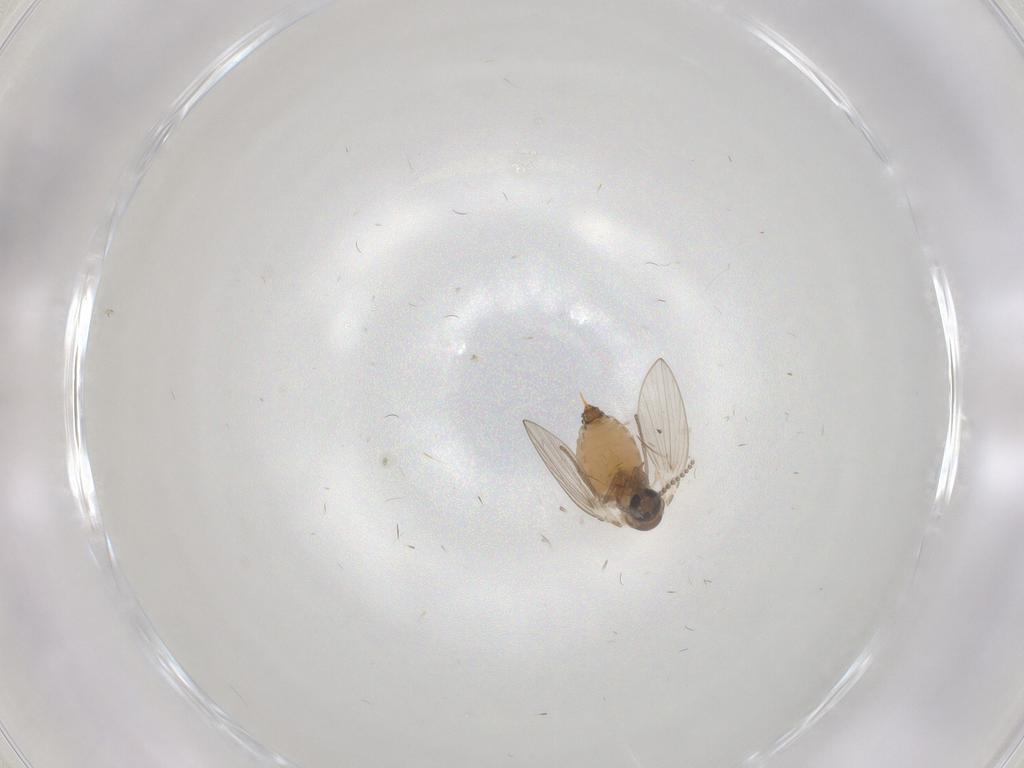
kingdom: Animalia
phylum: Arthropoda
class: Insecta
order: Diptera
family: Psychodidae
